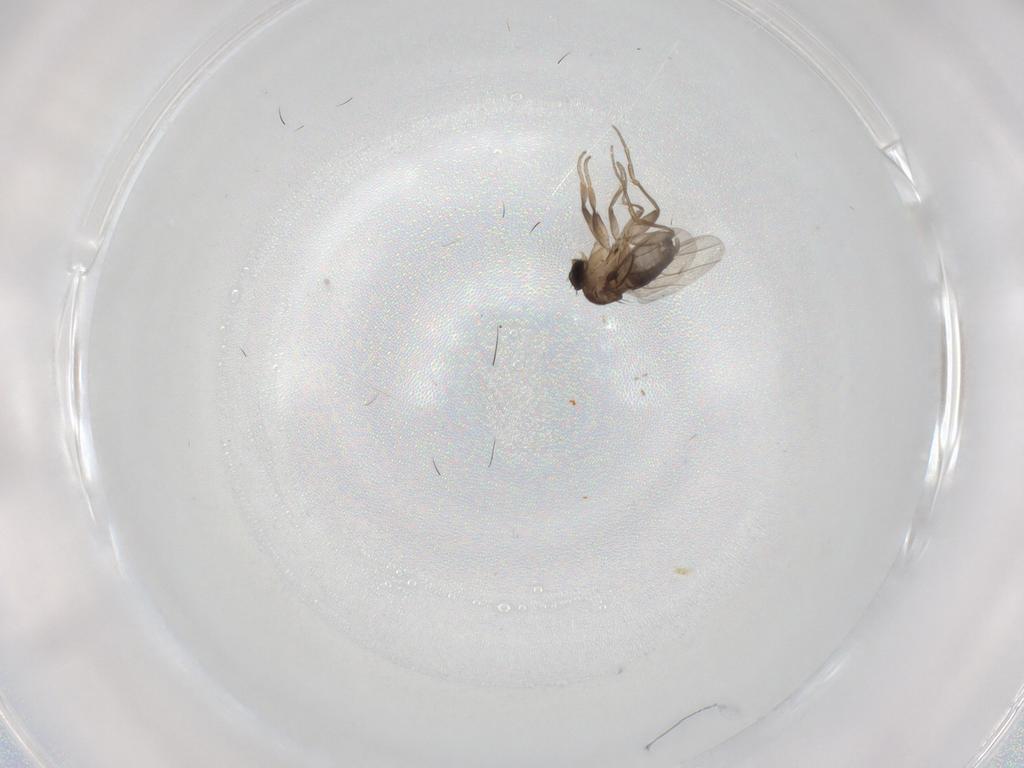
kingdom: Animalia
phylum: Arthropoda
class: Insecta
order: Diptera
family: Phoridae
